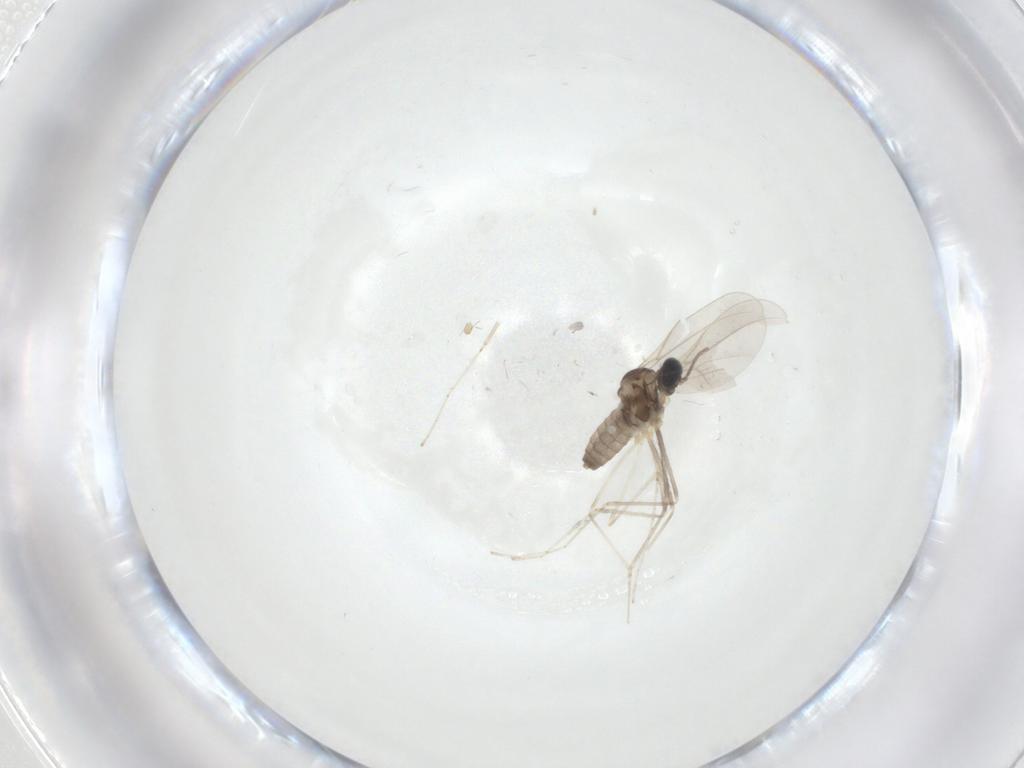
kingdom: Animalia
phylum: Arthropoda
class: Insecta
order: Diptera
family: Cecidomyiidae
